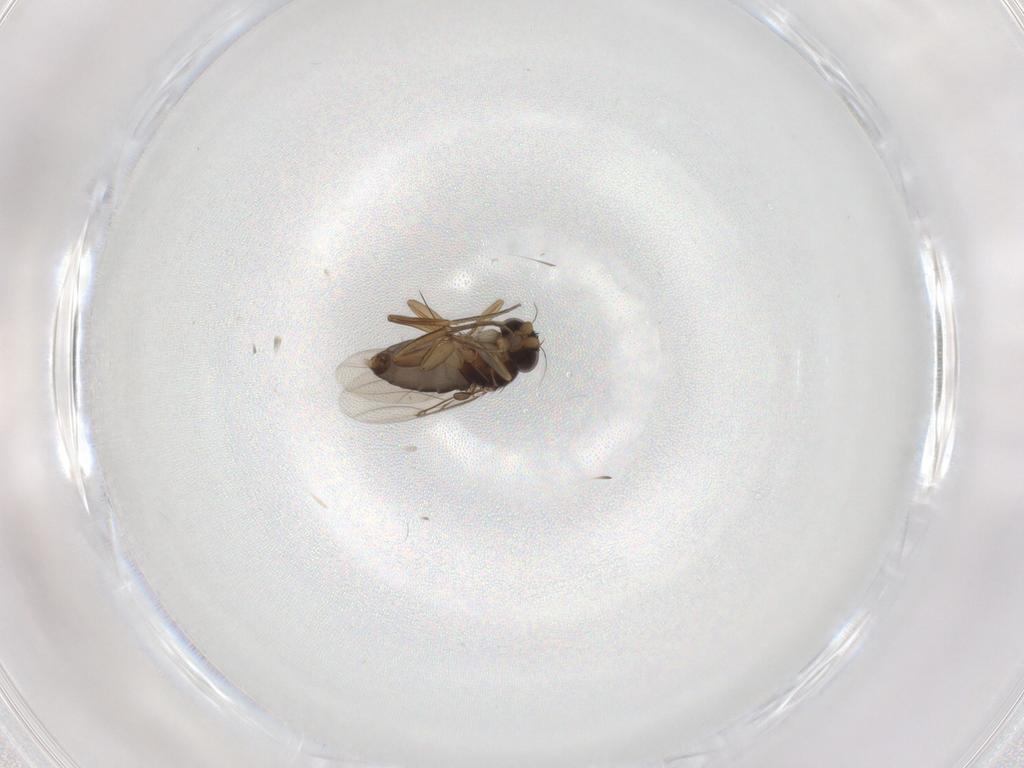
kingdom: Animalia
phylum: Arthropoda
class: Insecta
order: Diptera
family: Phoridae
